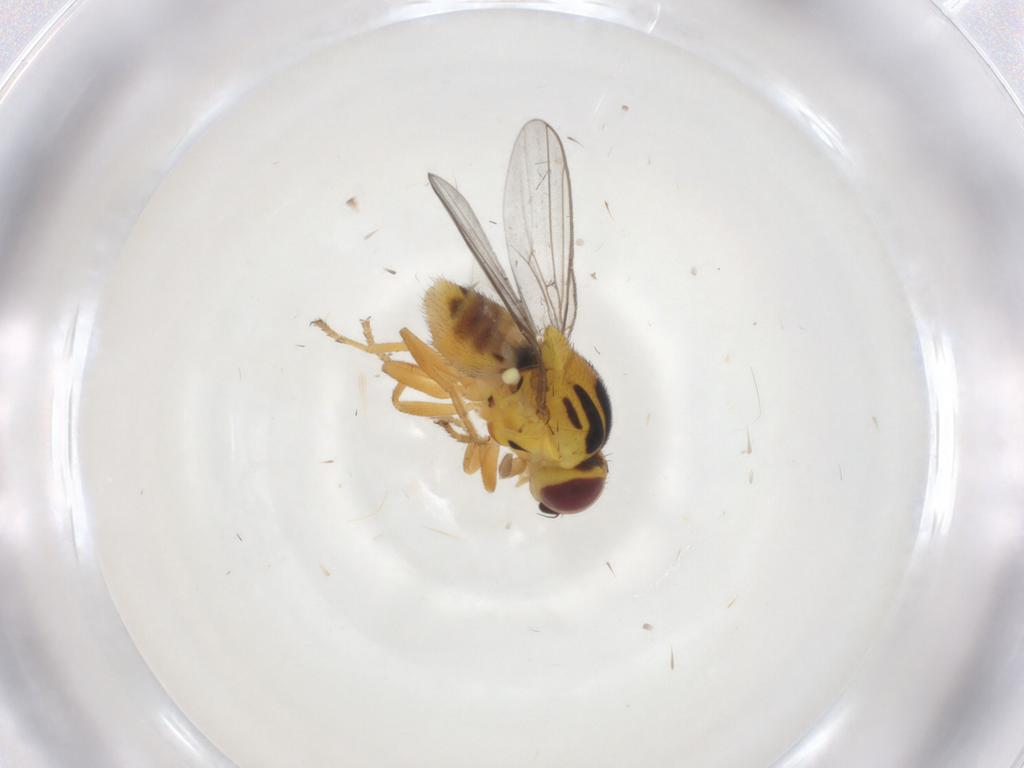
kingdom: Animalia
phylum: Arthropoda
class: Insecta
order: Diptera
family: Chloropidae
